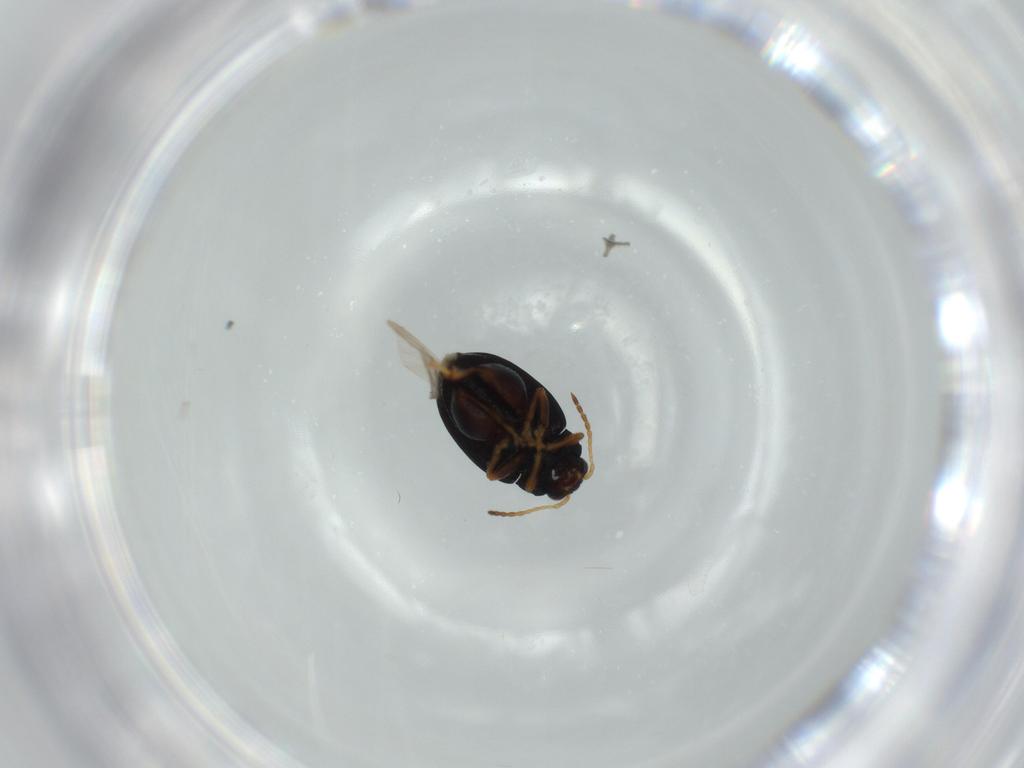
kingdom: Animalia
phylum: Arthropoda
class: Insecta
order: Coleoptera
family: Chrysomelidae
